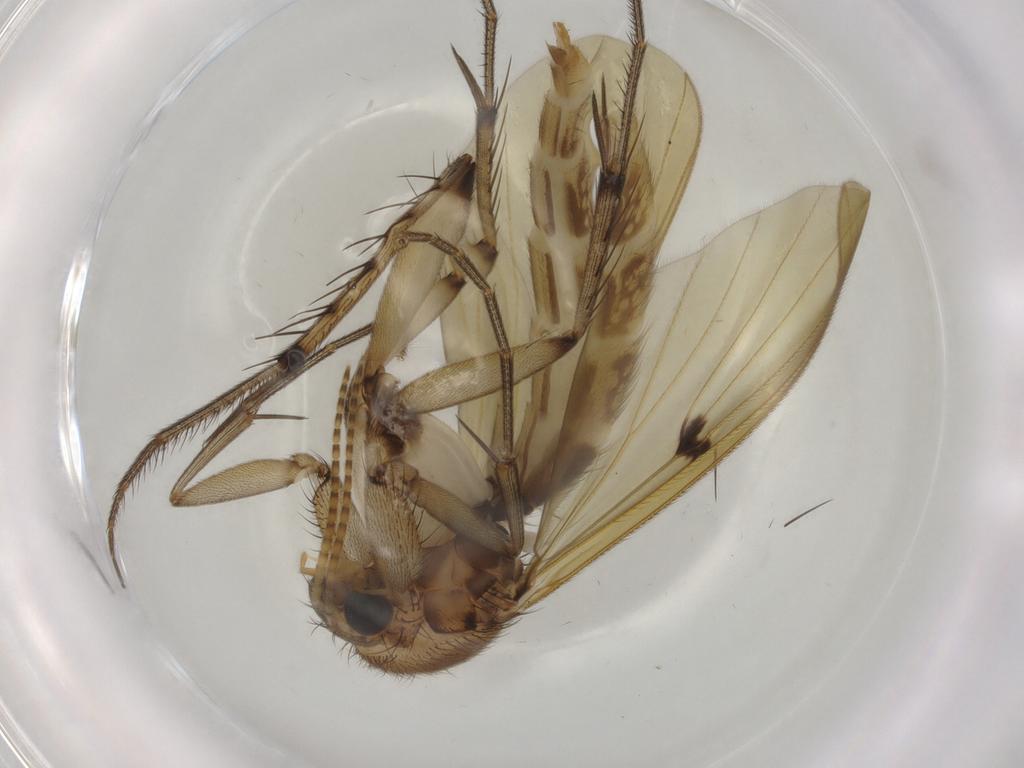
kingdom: Animalia
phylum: Arthropoda
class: Insecta
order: Diptera
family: Mycetophilidae
